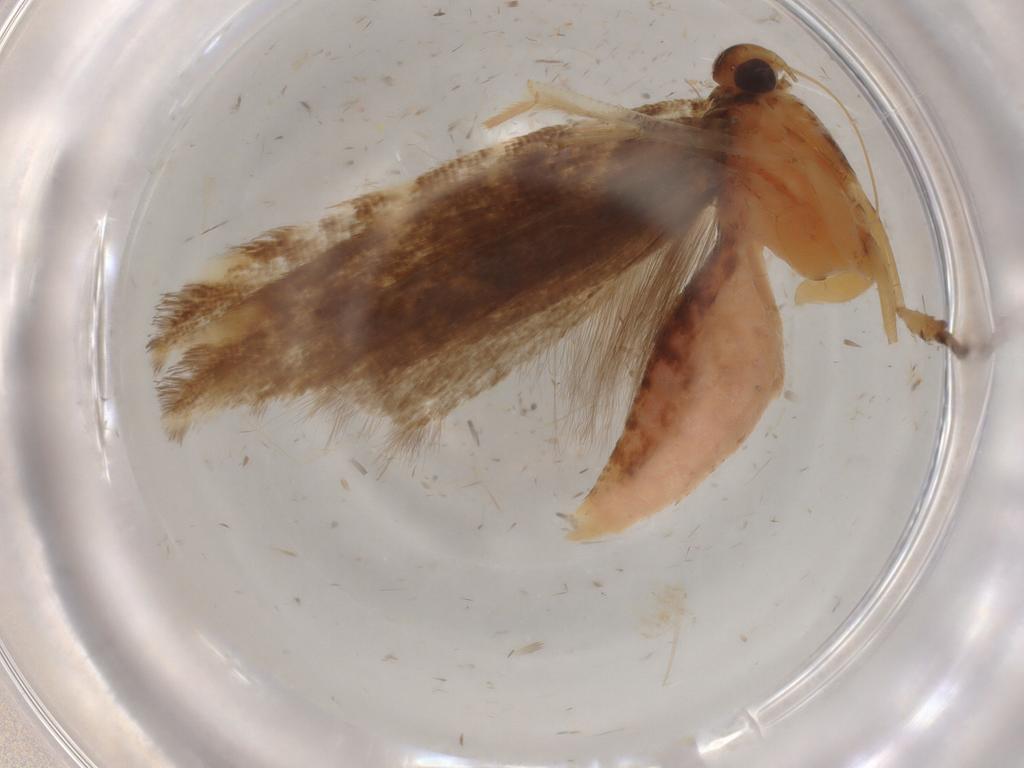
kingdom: Animalia
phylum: Arthropoda
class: Insecta
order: Lepidoptera
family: Gelechiidae
